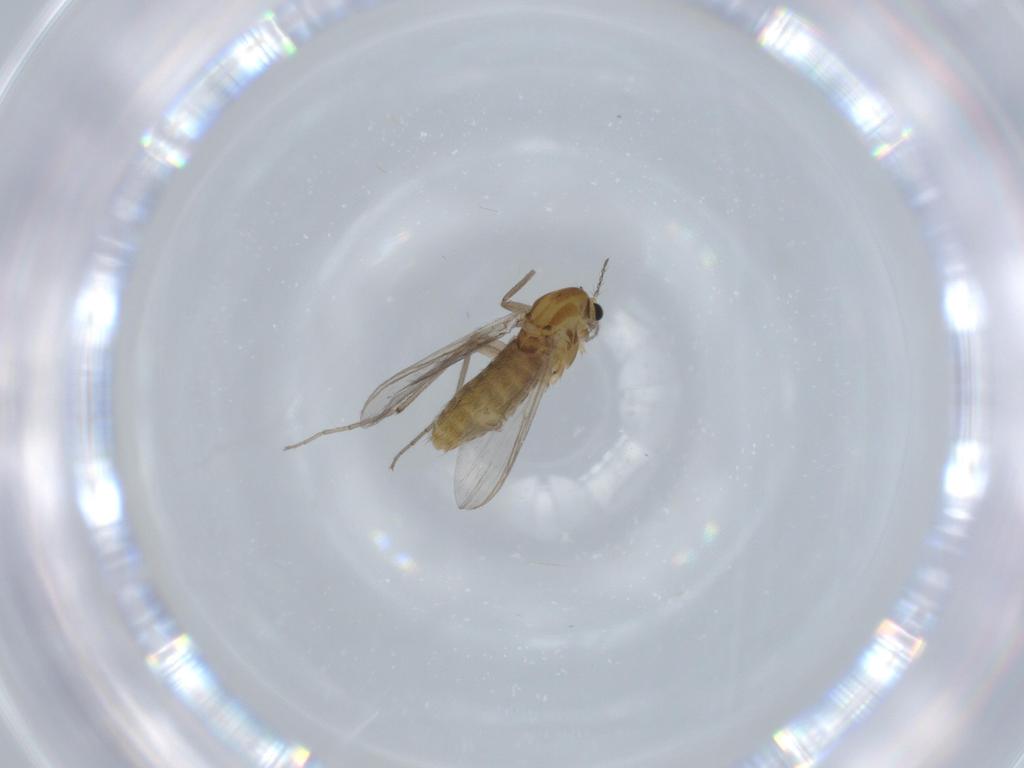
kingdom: Animalia
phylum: Arthropoda
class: Insecta
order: Diptera
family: Chironomidae
